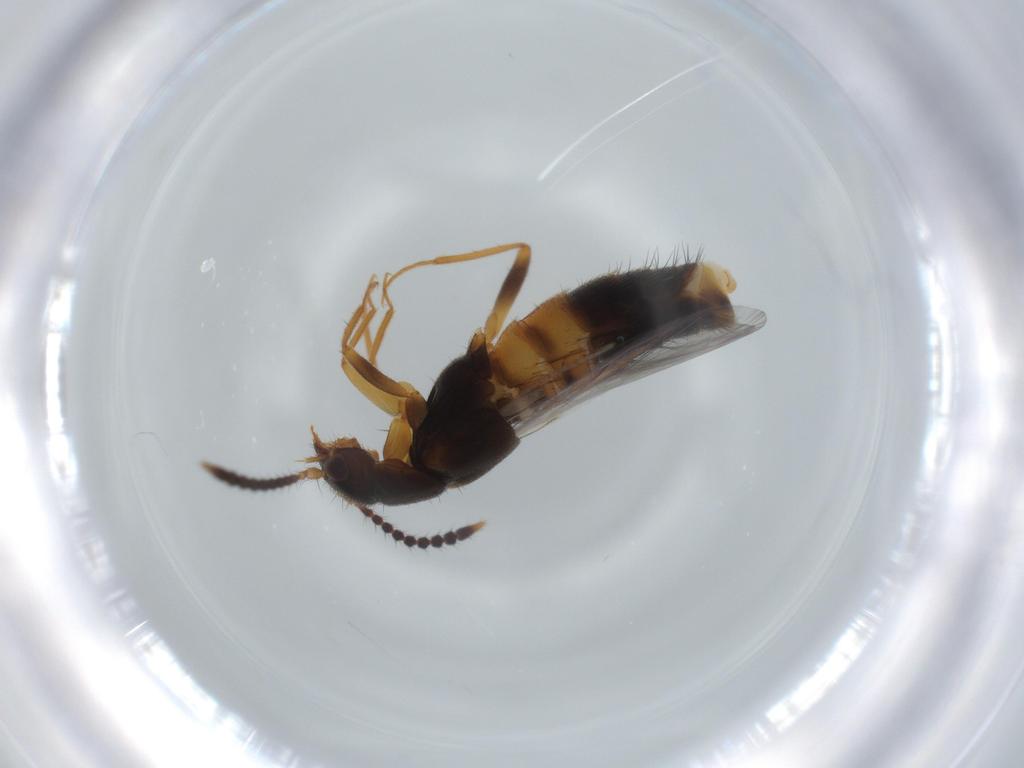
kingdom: Animalia
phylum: Arthropoda
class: Insecta
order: Coleoptera
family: Staphylinidae
